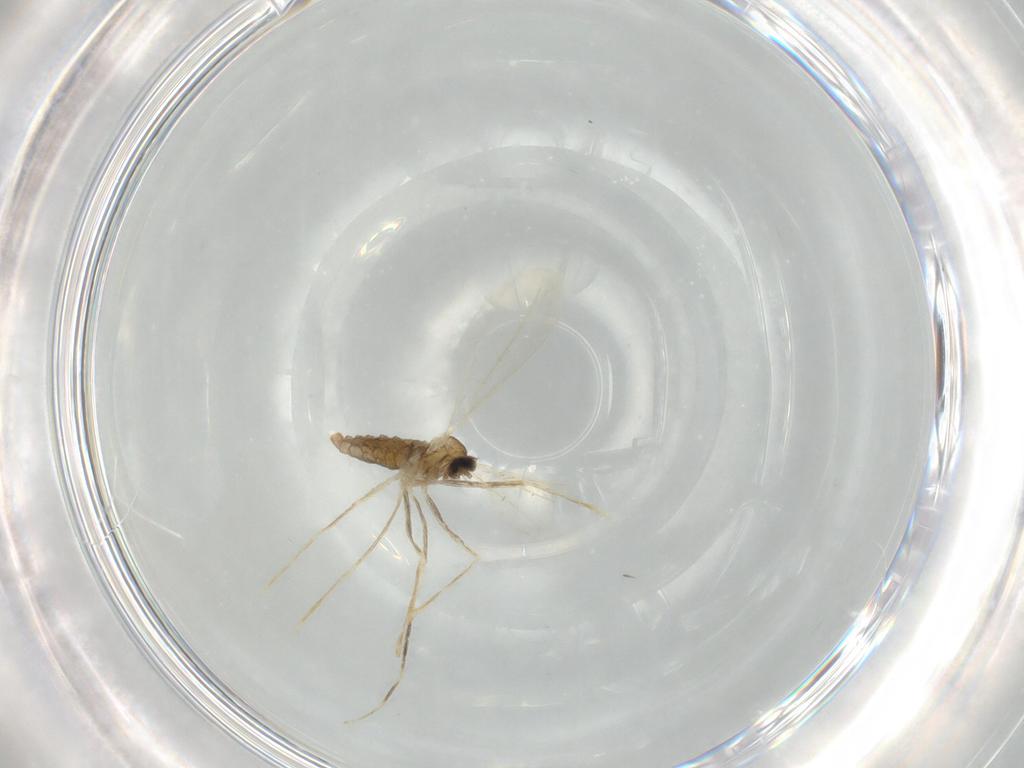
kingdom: Animalia
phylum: Arthropoda
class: Insecta
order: Diptera
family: Cecidomyiidae
